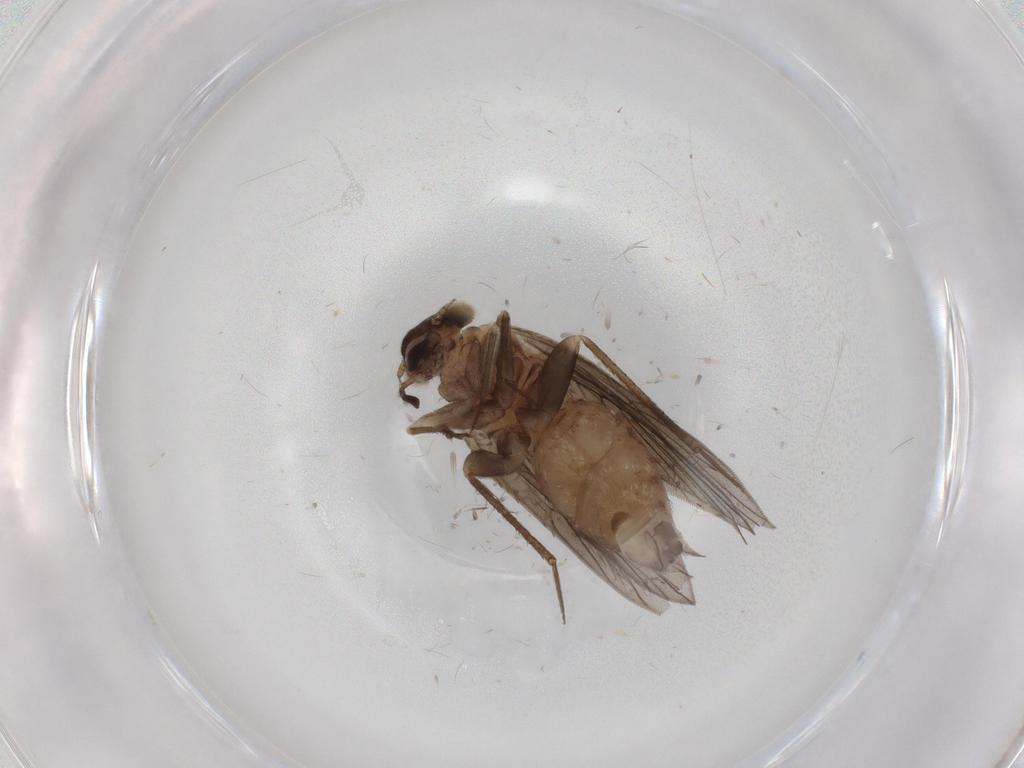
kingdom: Animalia
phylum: Arthropoda
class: Insecta
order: Psocodea
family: Lepidopsocidae
